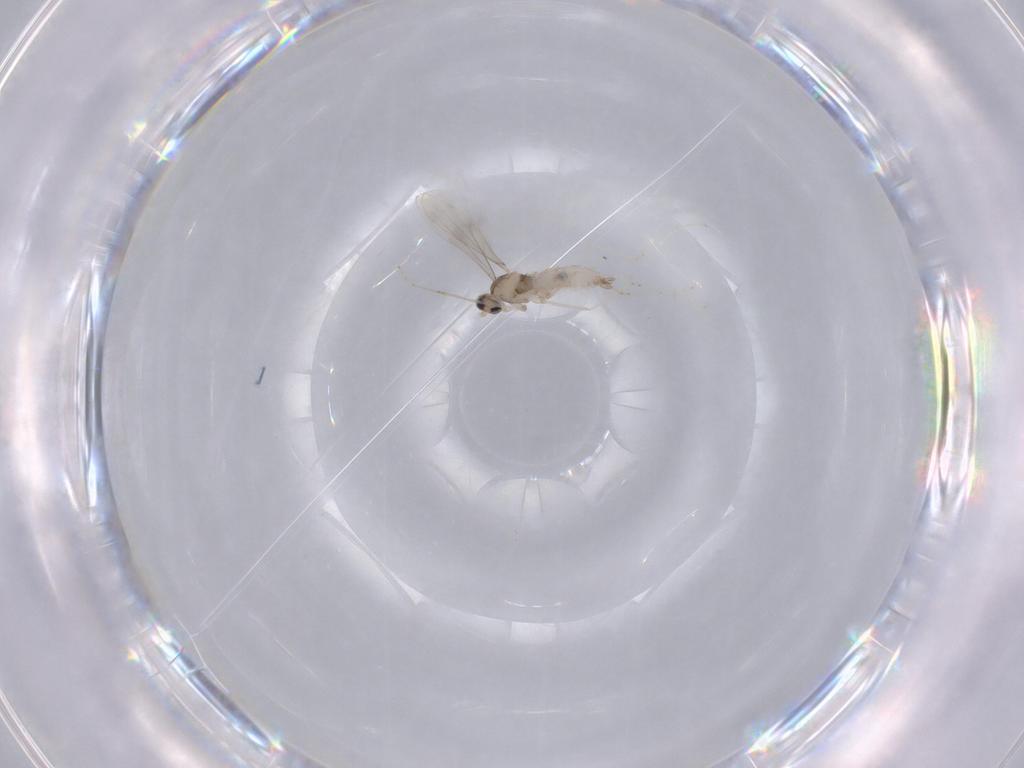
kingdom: Animalia
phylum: Arthropoda
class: Insecta
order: Diptera
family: Cecidomyiidae
